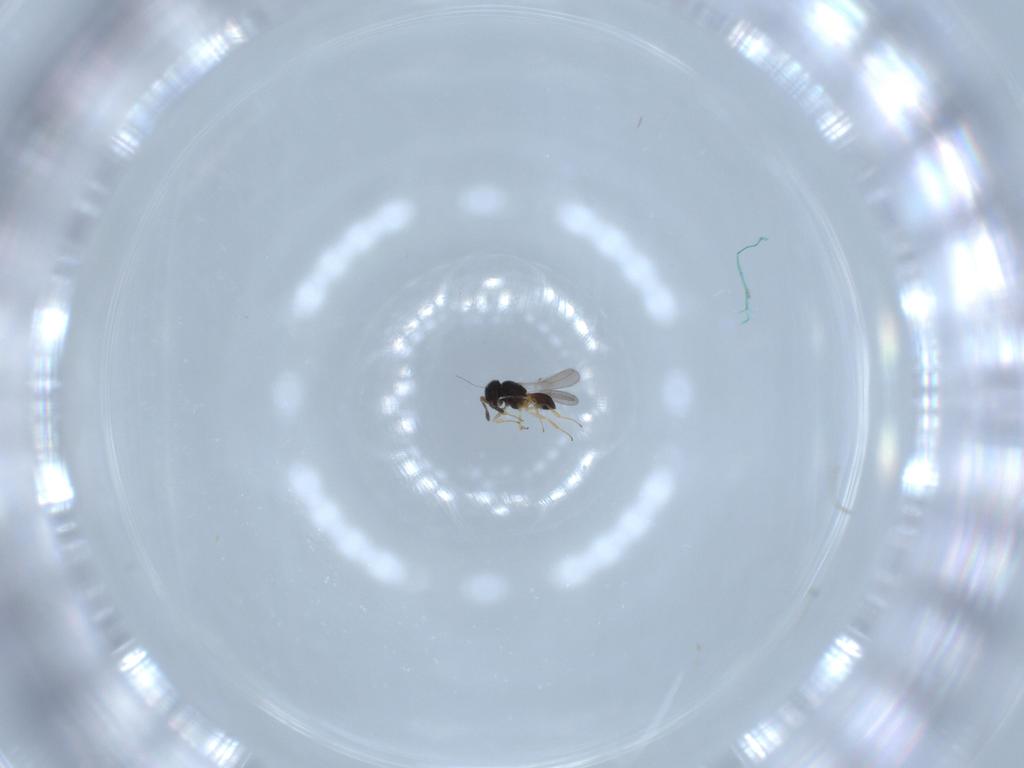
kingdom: Animalia
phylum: Arthropoda
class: Insecta
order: Hymenoptera
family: Scelionidae
